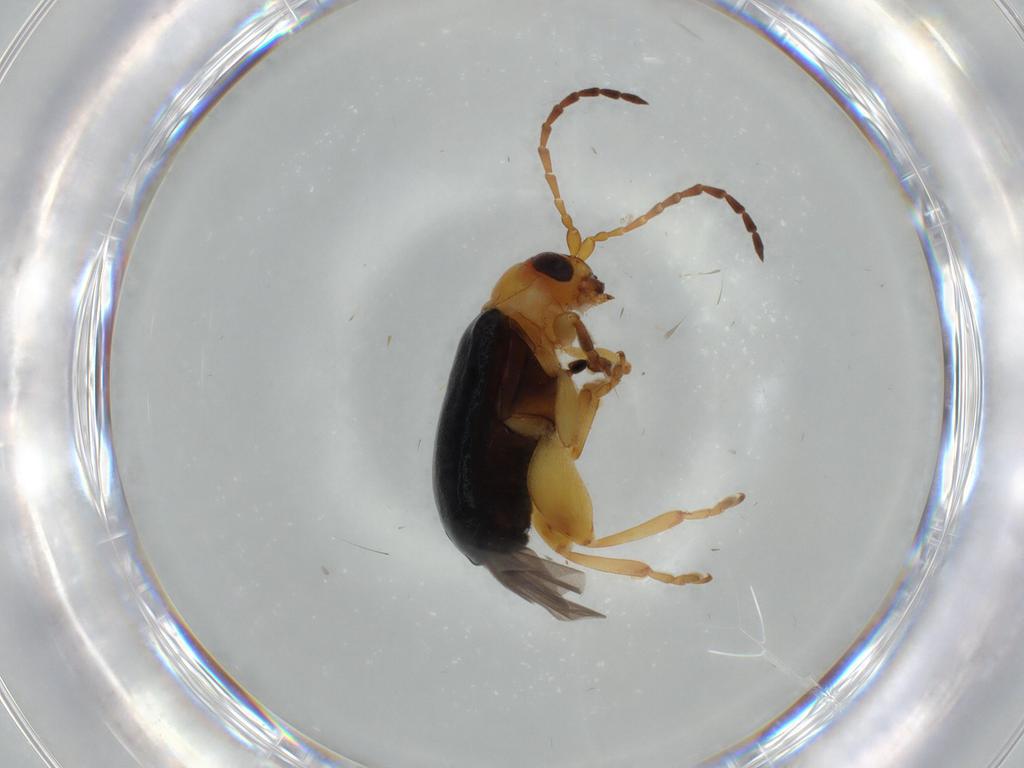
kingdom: Animalia
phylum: Arthropoda
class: Insecta
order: Coleoptera
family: Chrysomelidae
